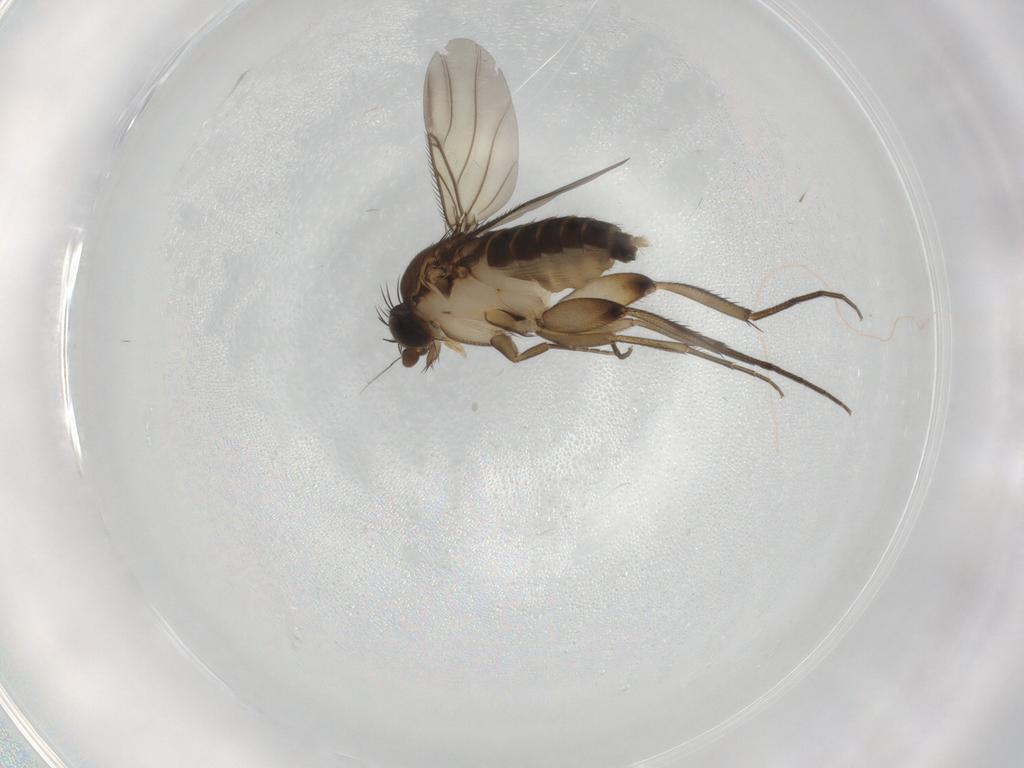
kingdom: Animalia
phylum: Arthropoda
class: Insecta
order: Diptera
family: Phoridae
